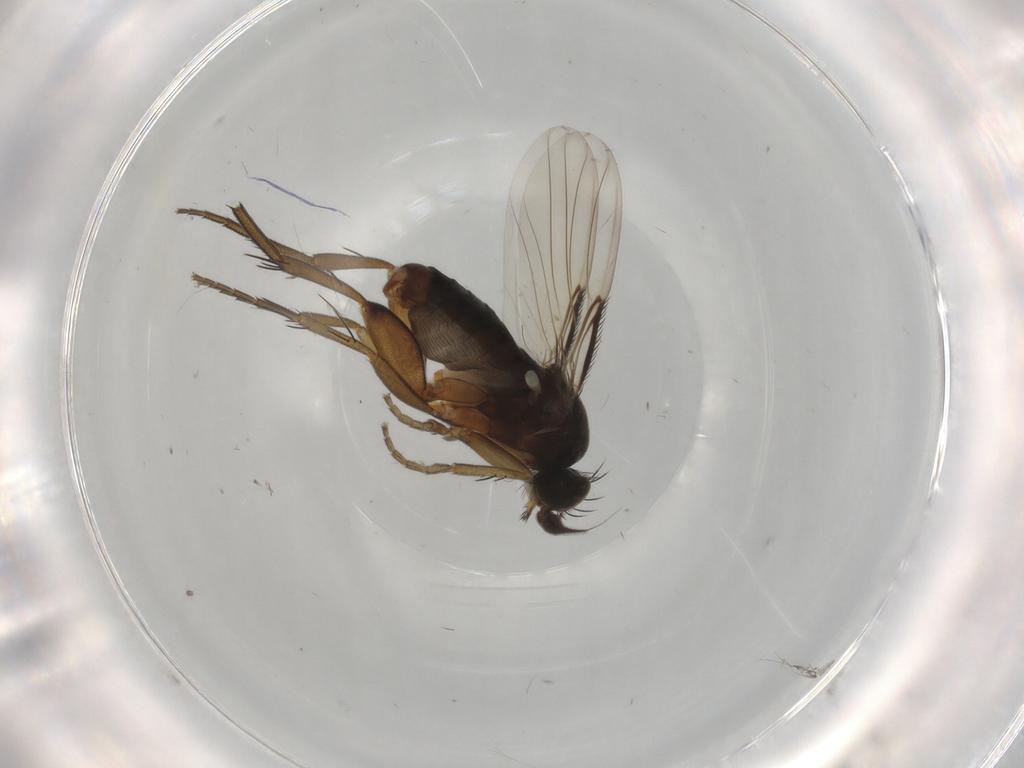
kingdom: Animalia
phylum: Arthropoda
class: Insecta
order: Diptera
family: Phoridae
